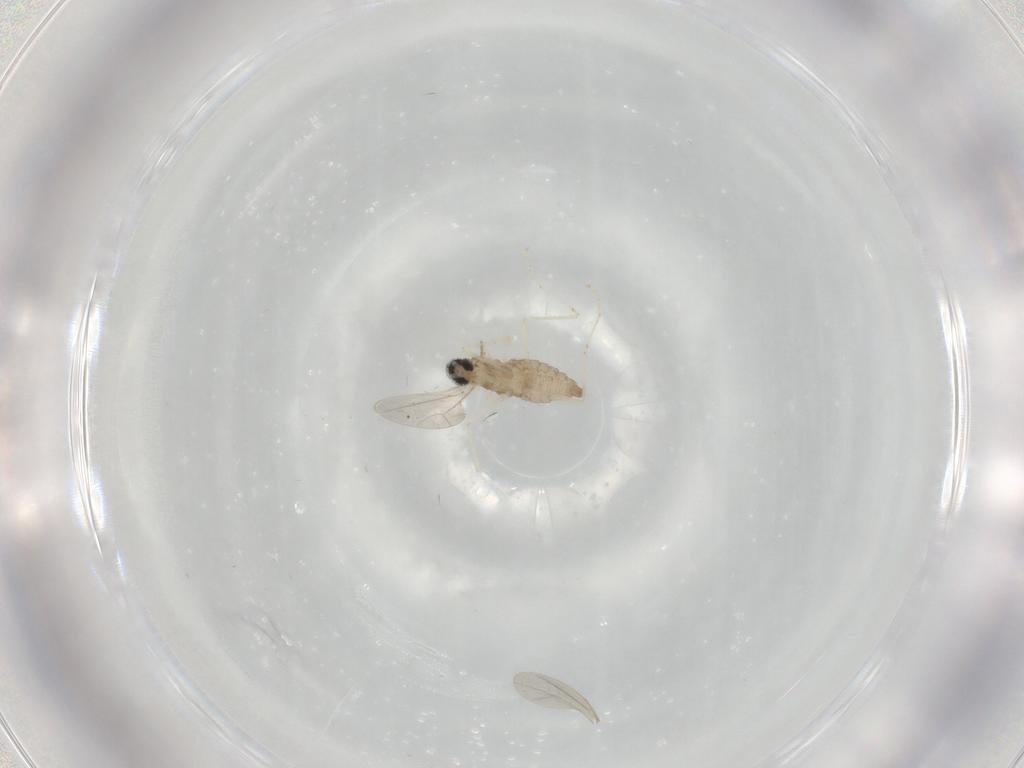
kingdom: Animalia
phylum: Arthropoda
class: Insecta
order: Diptera
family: Cecidomyiidae
